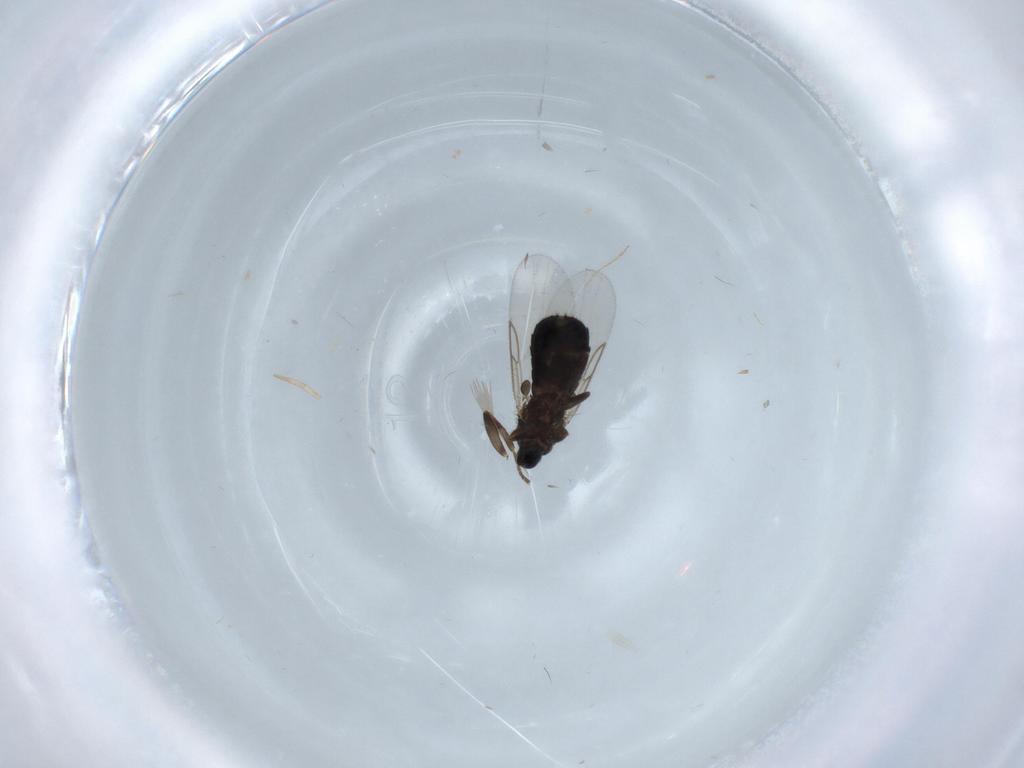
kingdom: Animalia
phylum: Arthropoda
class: Insecta
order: Diptera
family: Scatopsidae
